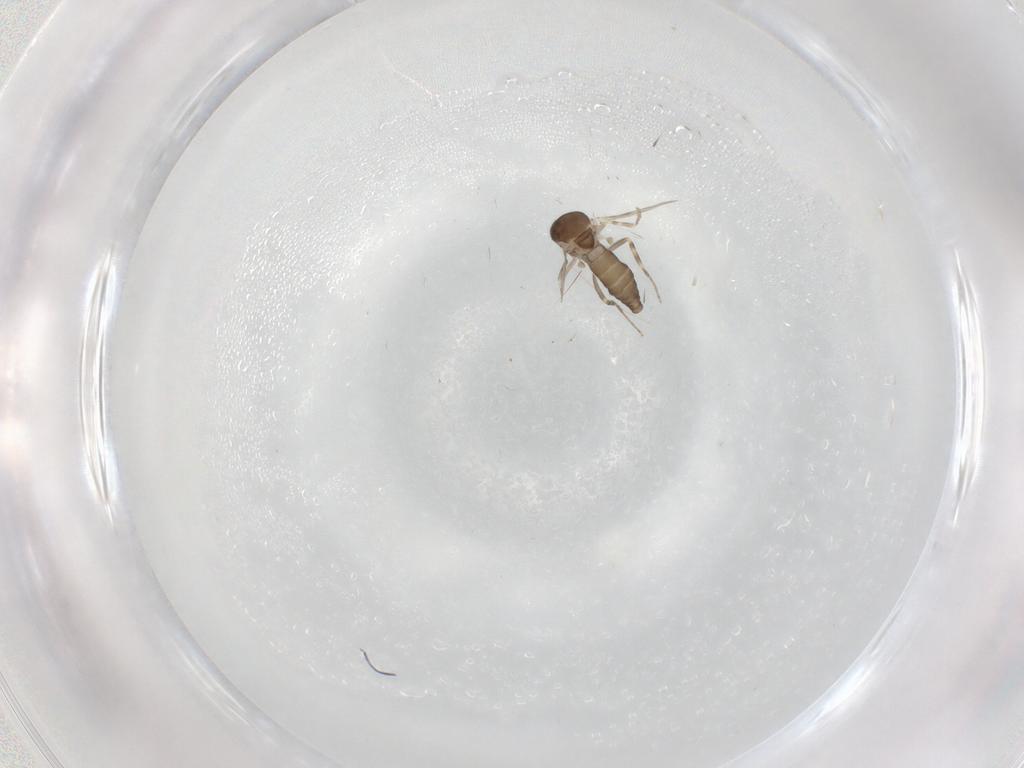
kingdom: Animalia
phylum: Arthropoda
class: Insecta
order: Diptera
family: Ceratopogonidae
